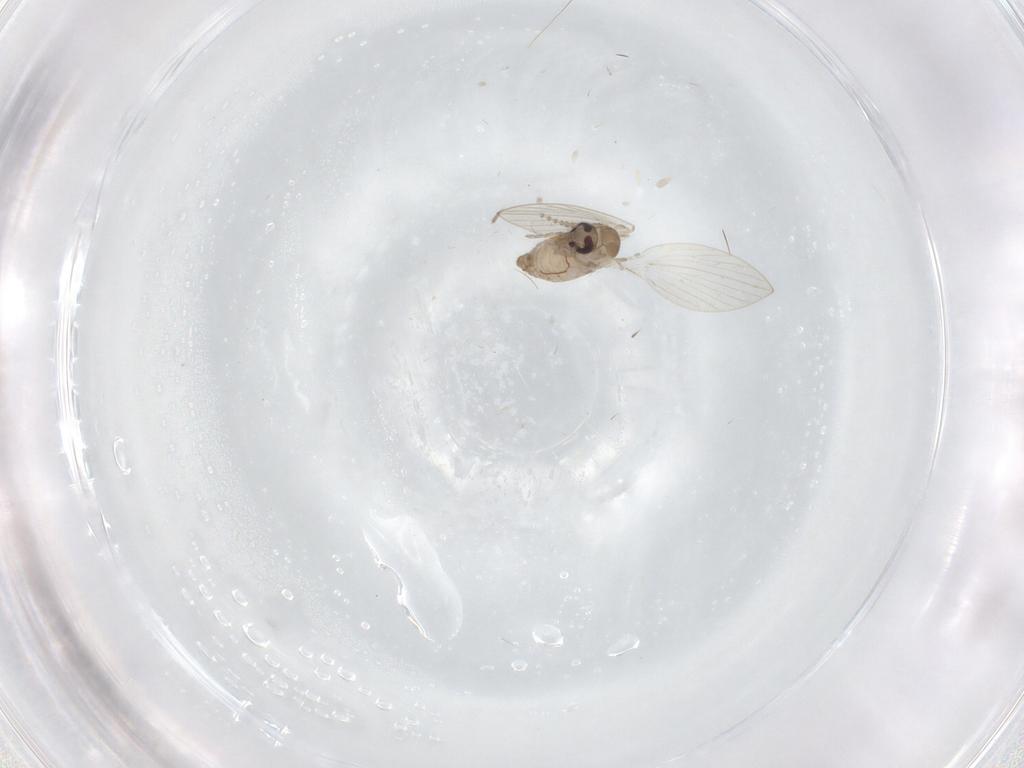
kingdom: Animalia
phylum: Arthropoda
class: Insecta
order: Diptera
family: Psychodidae
